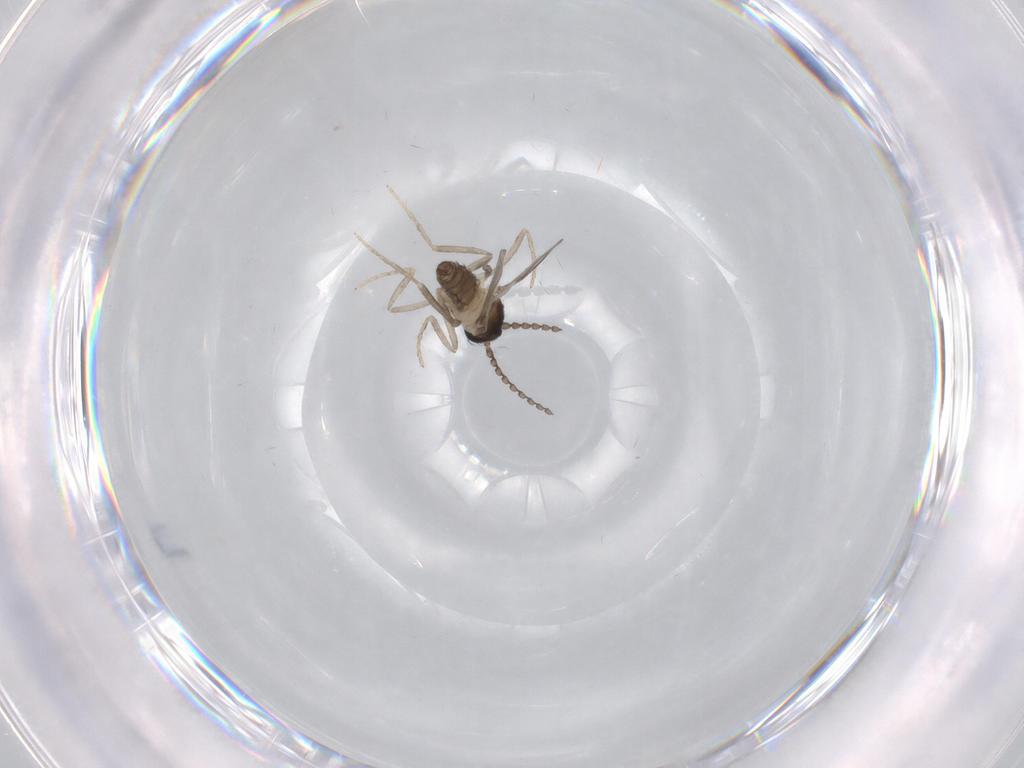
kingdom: Animalia
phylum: Arthropoda
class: Insecta
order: Diptera
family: Cecidomyiidae
